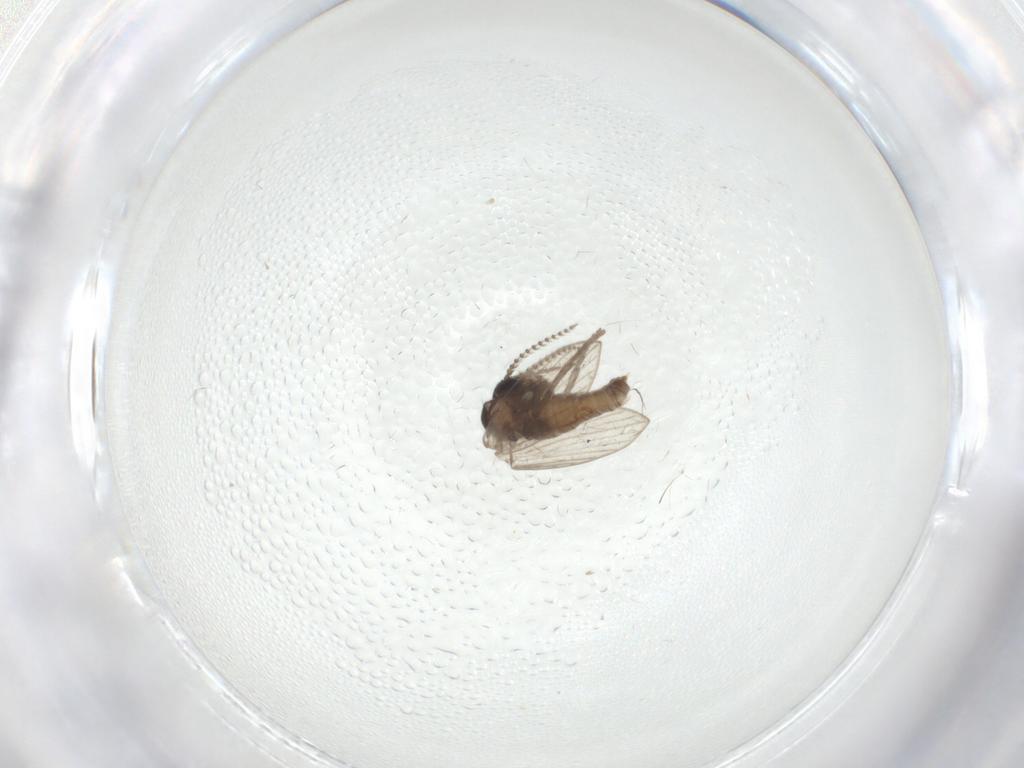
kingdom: Animalia
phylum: Arthropoda
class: Insecta
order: Diptera
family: Psychodidae
